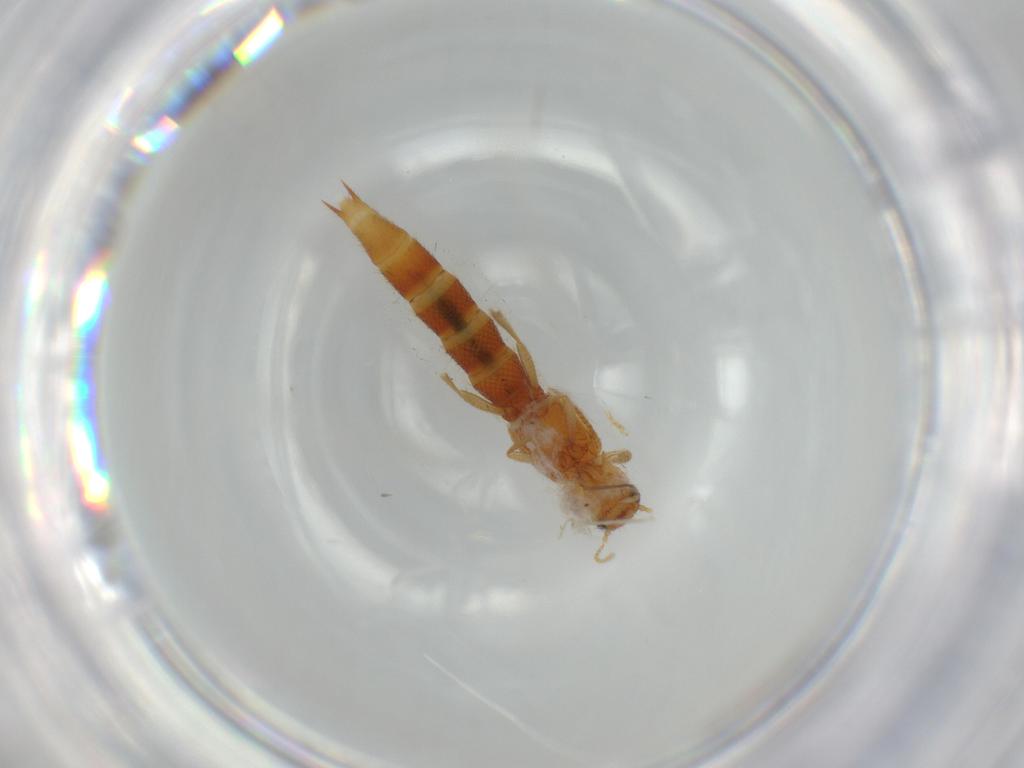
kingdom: Animalia
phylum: Arthropoda
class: Insecta
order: Coleoptera
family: Staphylinidae
